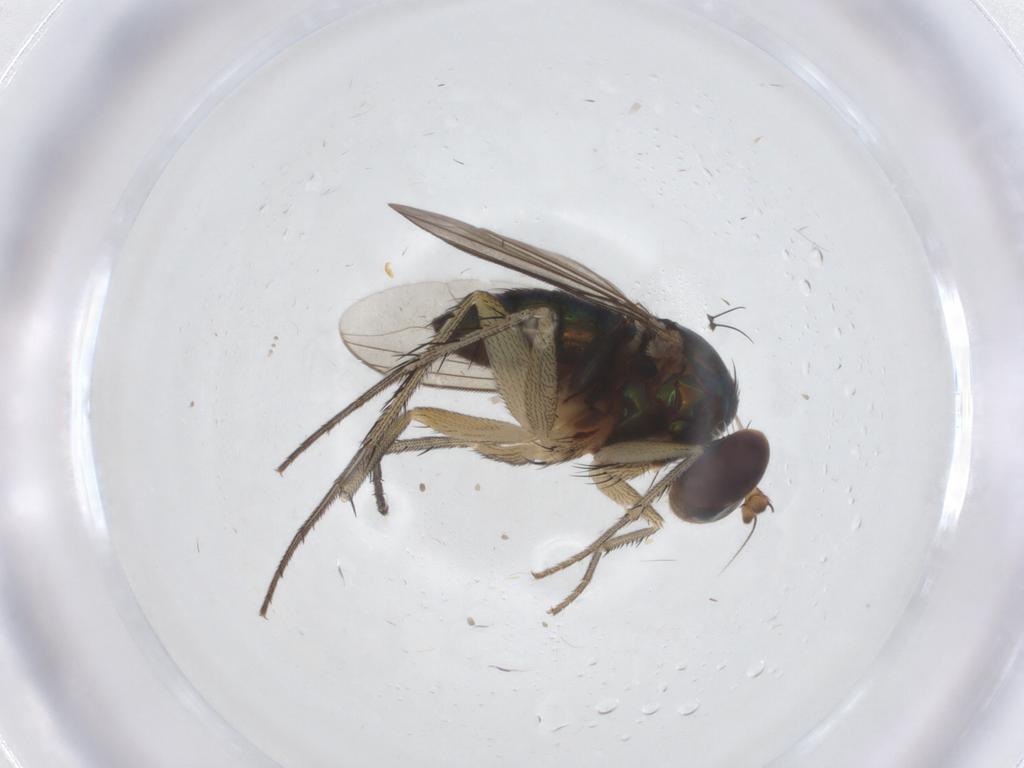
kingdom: Animalia
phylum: Arthropoda
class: Insecta
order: Diptera
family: Dolichopodidae
